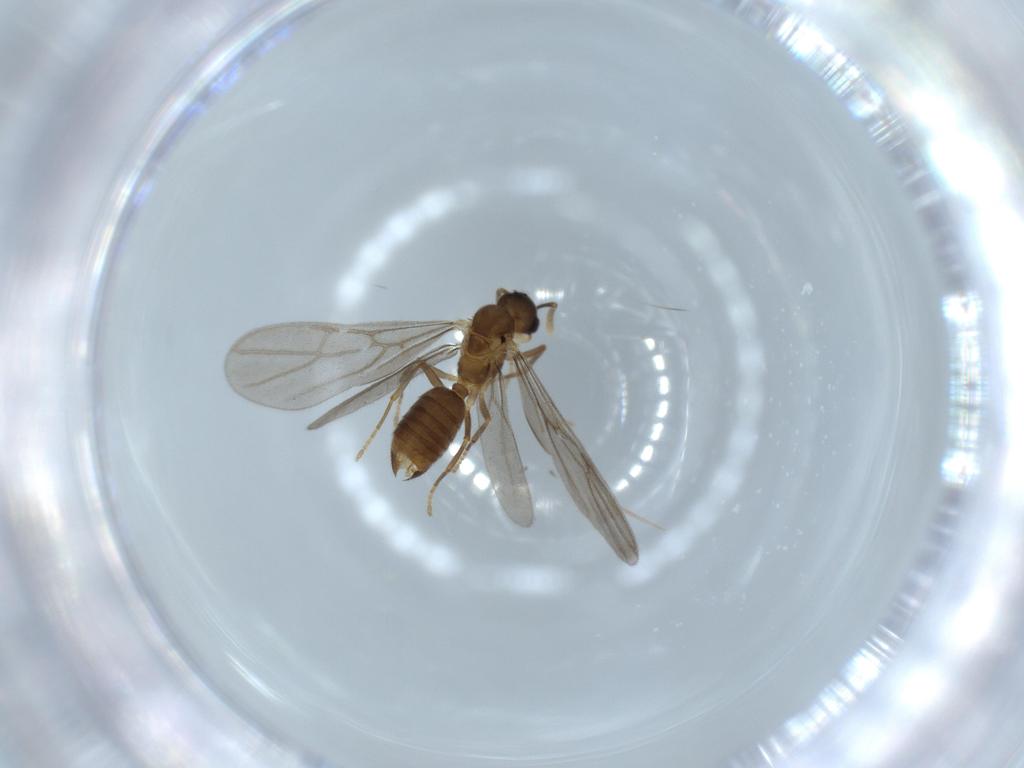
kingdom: Animalia
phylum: Arthropoda
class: Insecta
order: Hymenoptera
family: Formicidae
